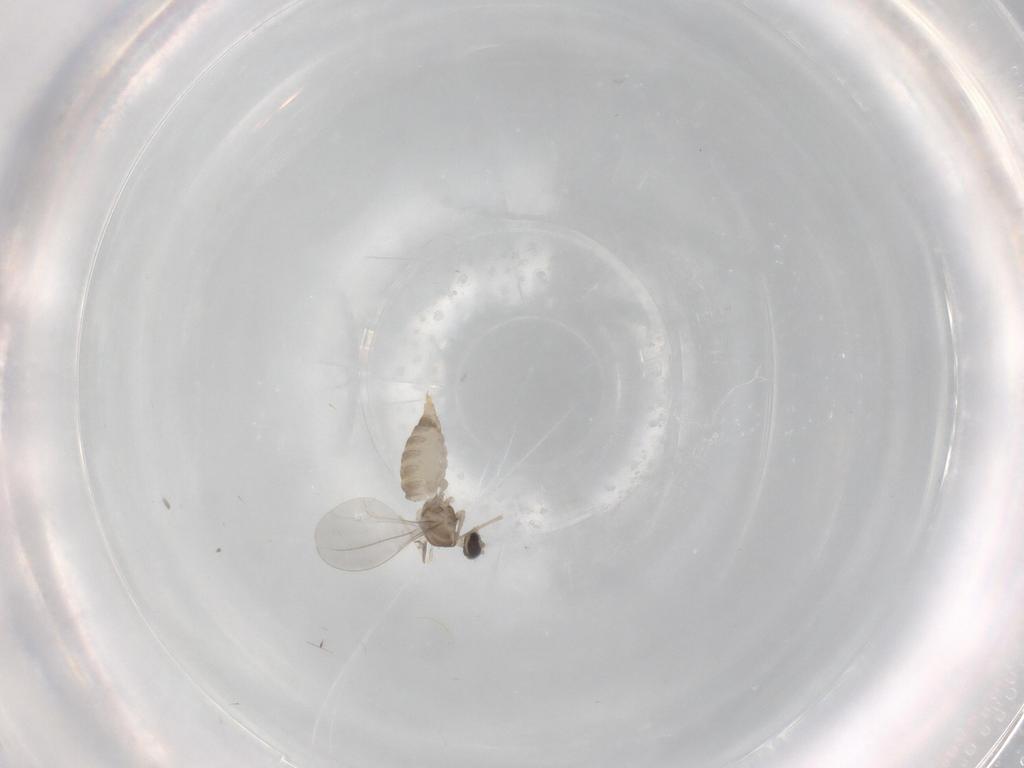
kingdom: Animalia
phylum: Arthropoda
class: Insecta
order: Diptera
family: Cecidomyiidae
